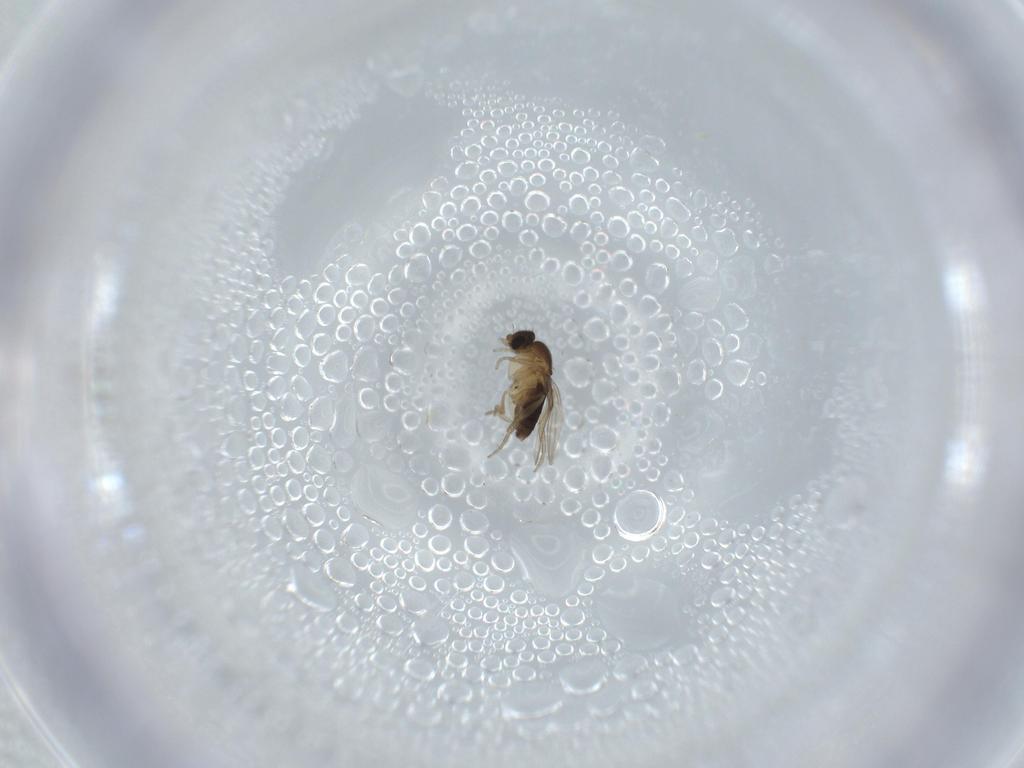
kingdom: Animalia
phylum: Arthropoda
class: Insecta
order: Diptera
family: Phoridae
